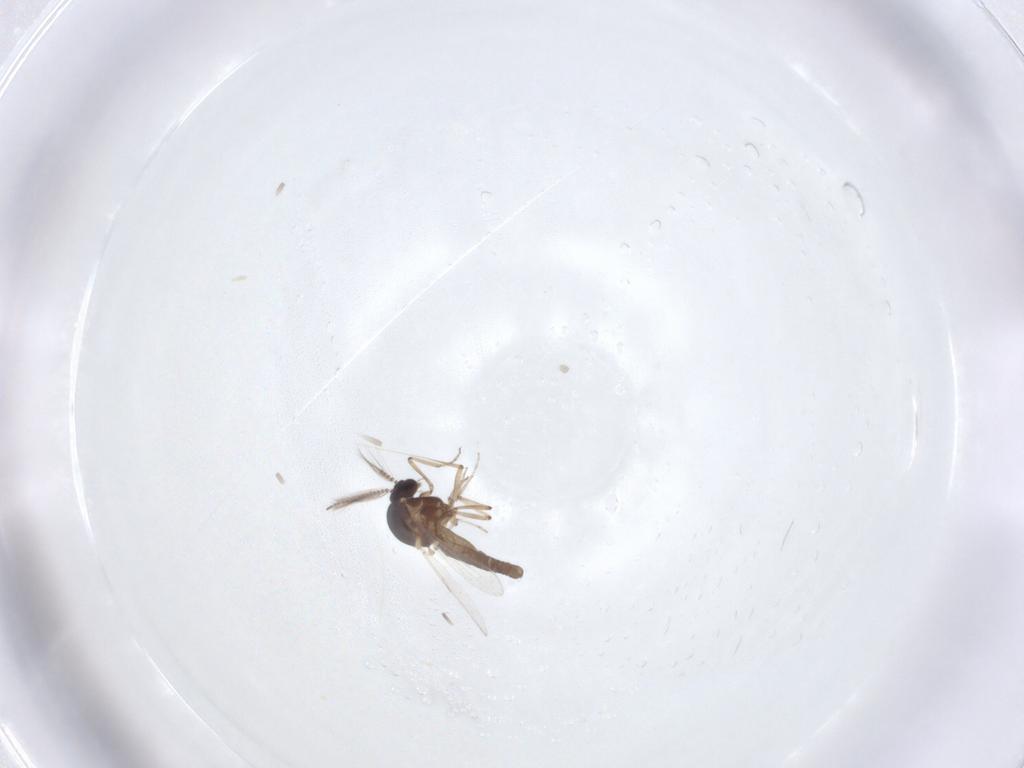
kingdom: Animalia
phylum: Arthropoda
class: Insecta
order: Diptera
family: Ceratopogonidae
